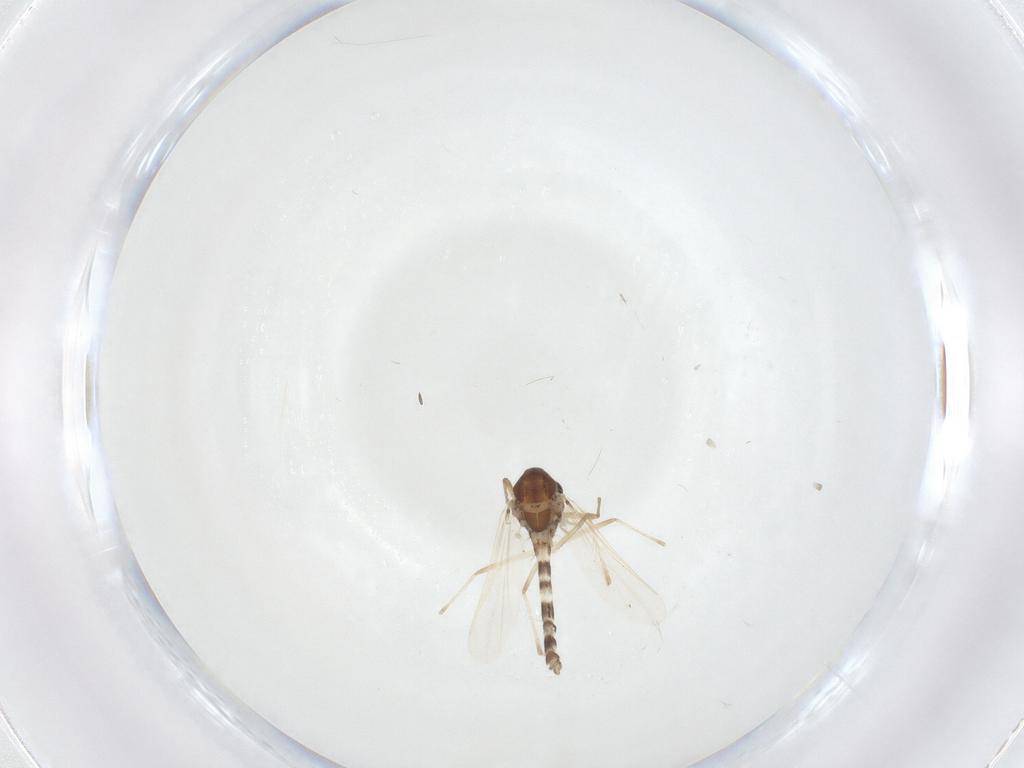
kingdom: Animalia
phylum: Arthropoda
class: Insecta
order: Diptera
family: Chironomidae
